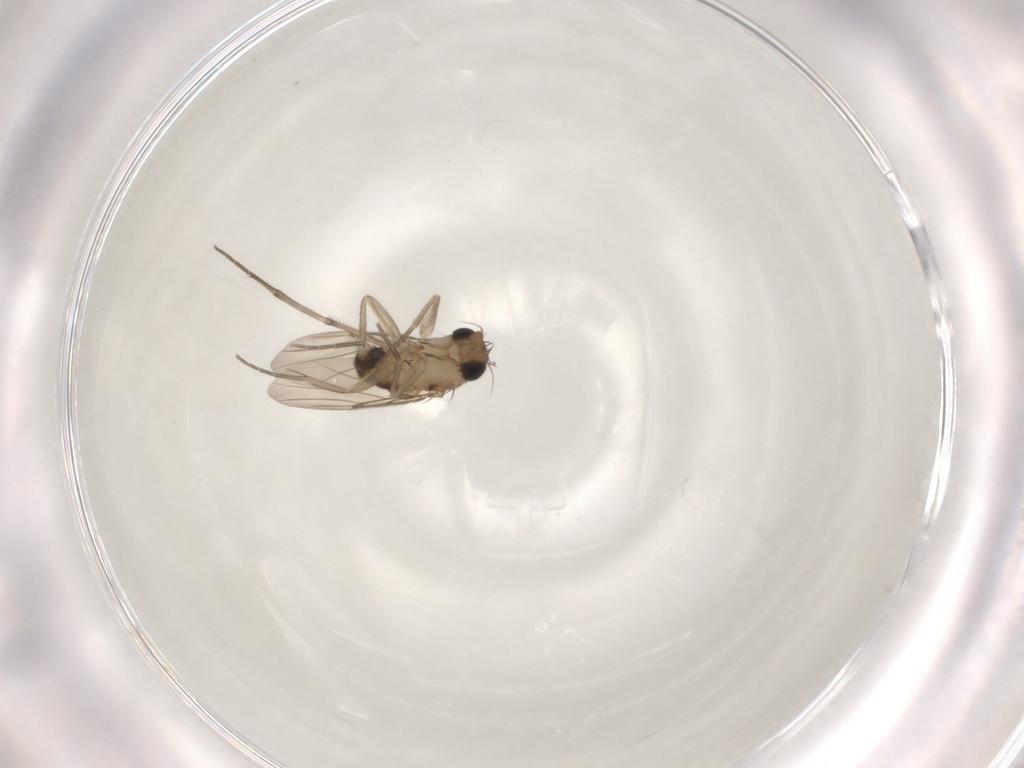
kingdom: Animalia
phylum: Arthropoda
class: Insecta
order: Diptera
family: Phoridae
